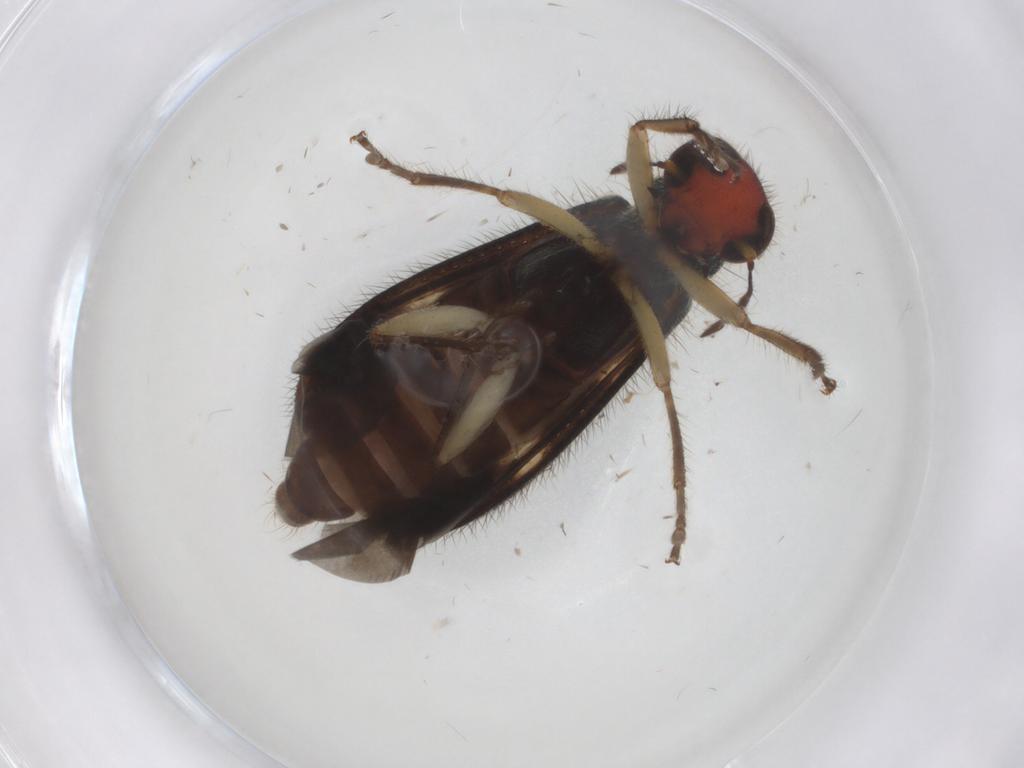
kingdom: Animalia
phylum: Arthropoda
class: Insecta
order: Coleoptera
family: Cleridae
